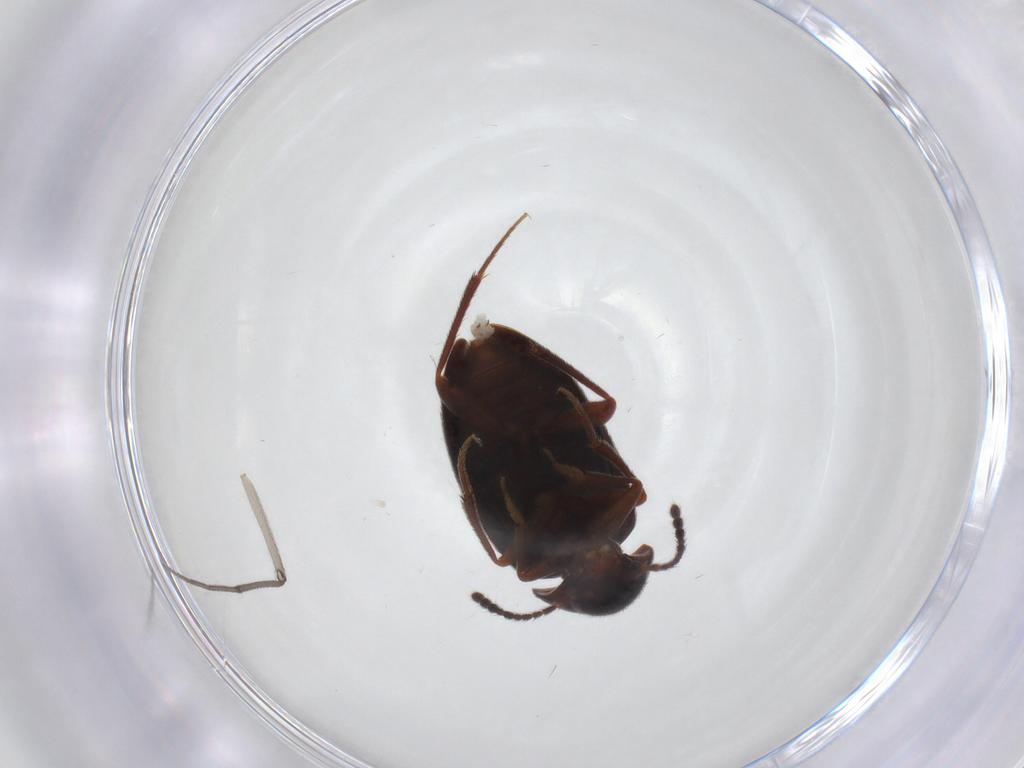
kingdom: Animalia
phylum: Arthropoda
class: Insecta
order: Coleoptera
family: Leiodidae
